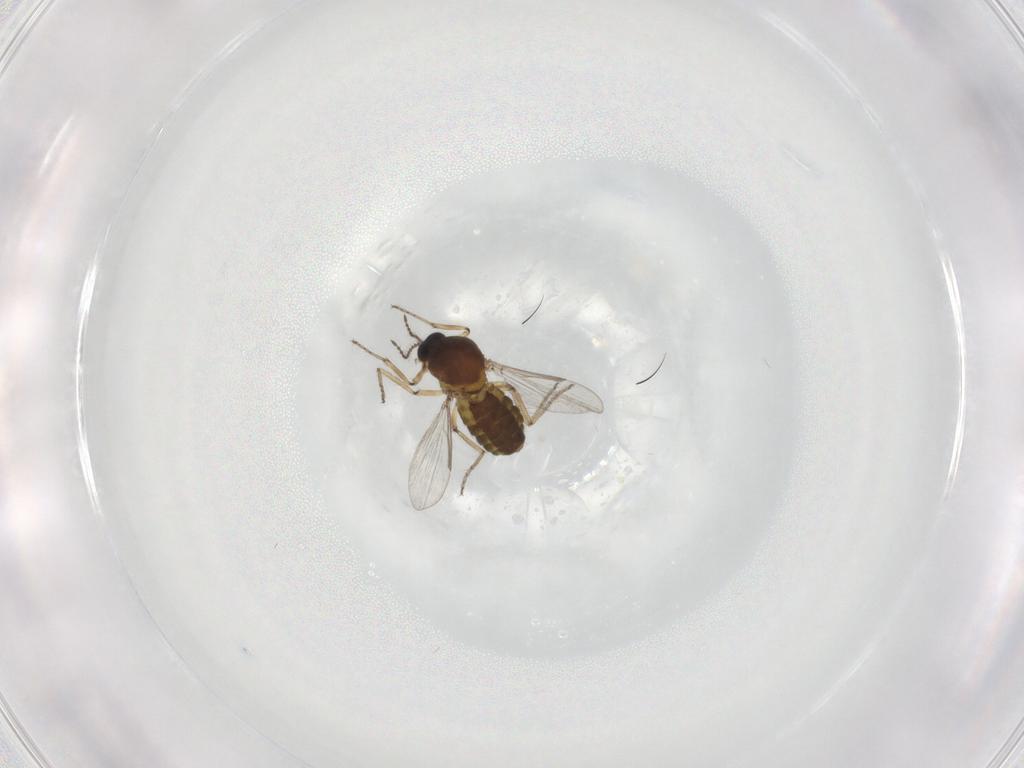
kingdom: Animalia
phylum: Arthropoda
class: Insecta
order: Diptera
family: Ceratopogonidae
